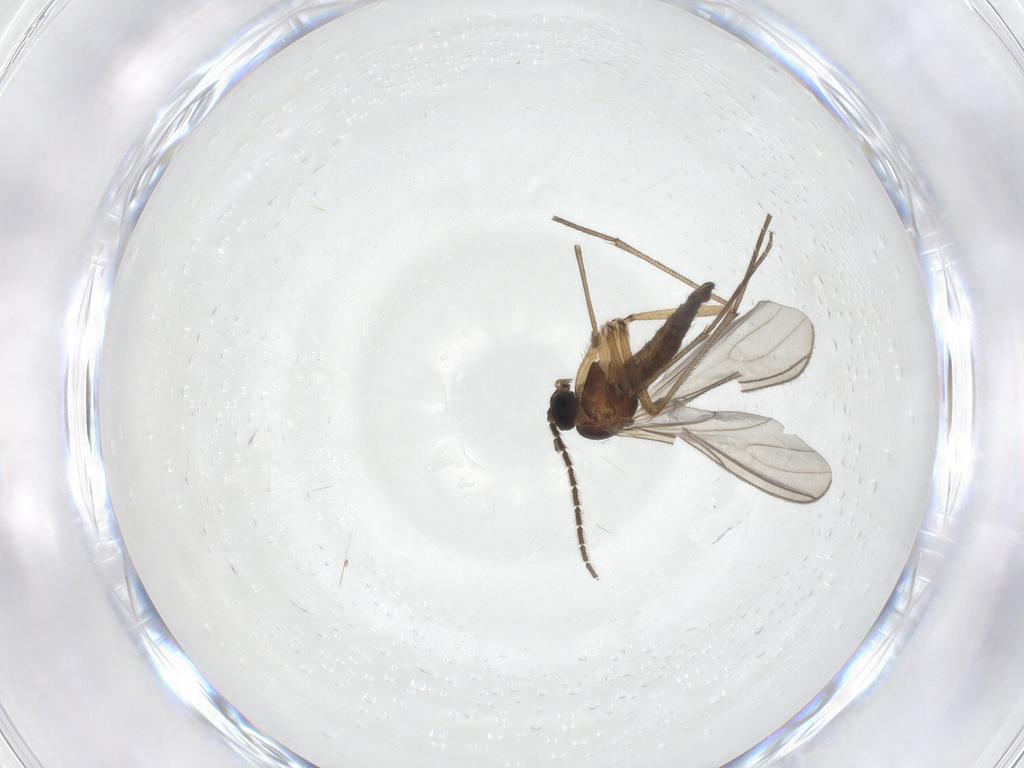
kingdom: Animalia
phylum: Arthropoda
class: Insecta
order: Diptera
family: Sciaridae
